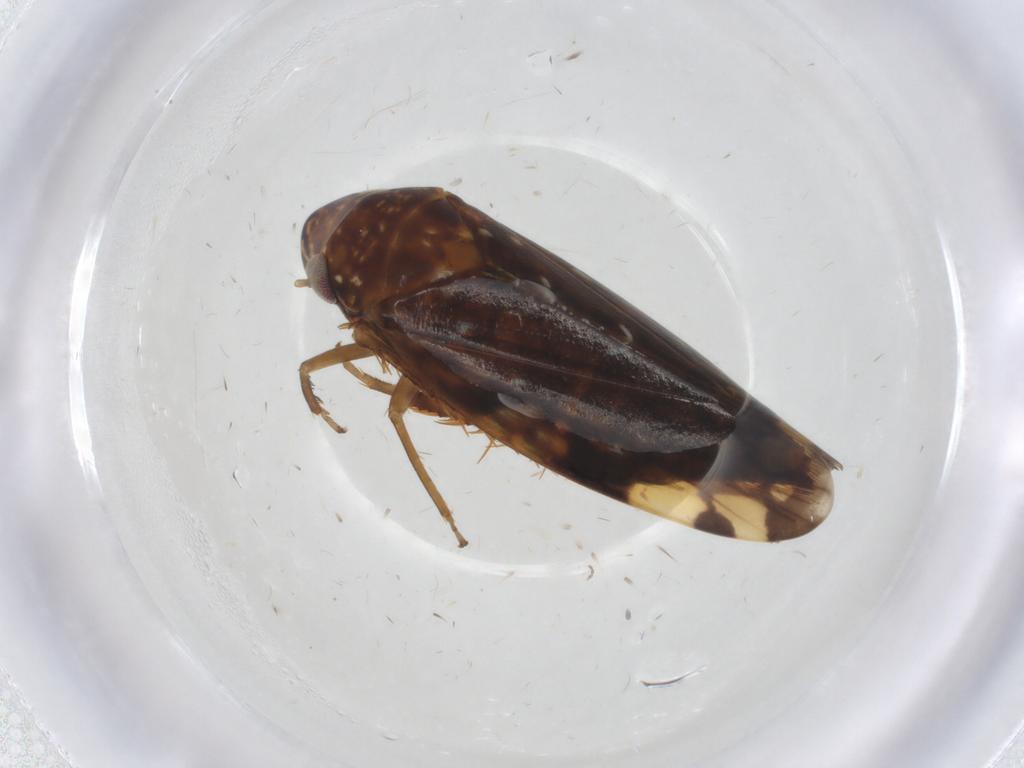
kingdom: Animalia
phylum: Arthropoda
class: Insecta
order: Hemiptera
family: Cicadellidae
